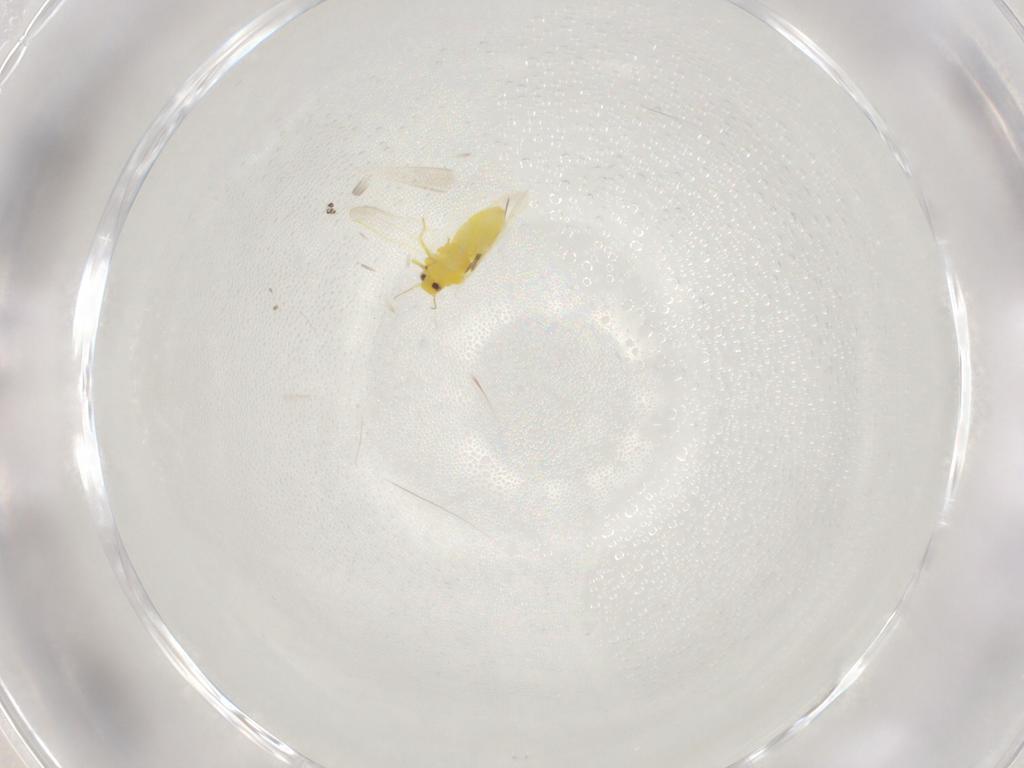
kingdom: Animalia
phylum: Arthropoda
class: Insecta
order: Hemiptera
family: Aleyrodidae
